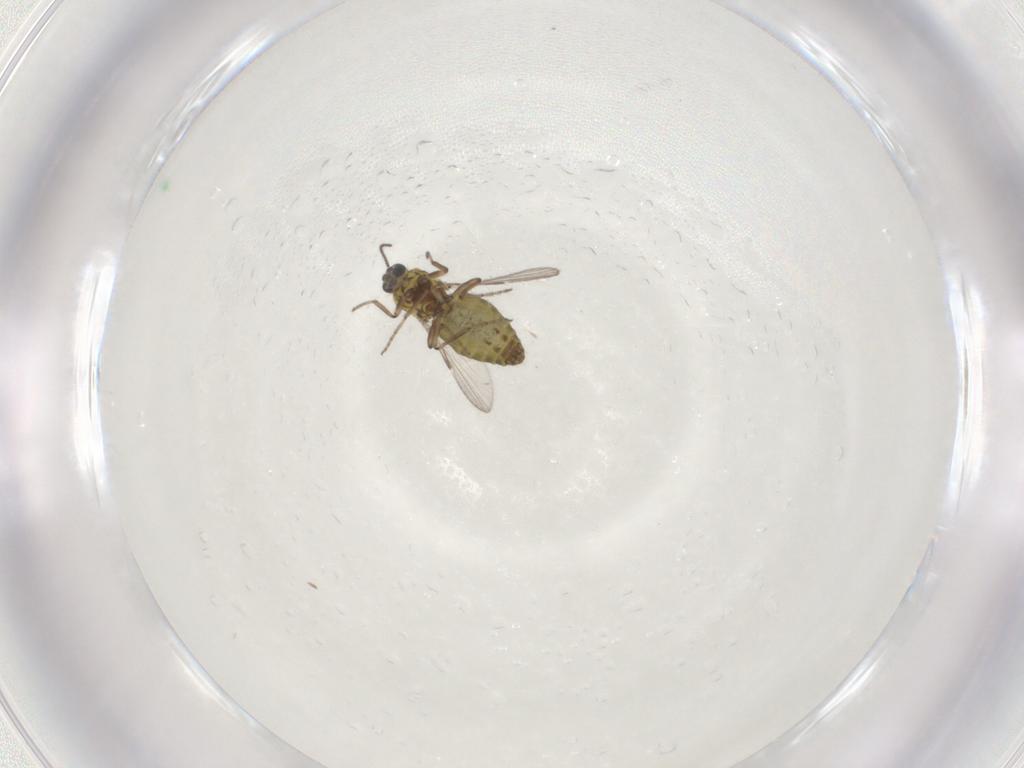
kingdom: Animalia
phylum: Arthropoda
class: Insecta
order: Diptera
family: Ceratopogonidae
